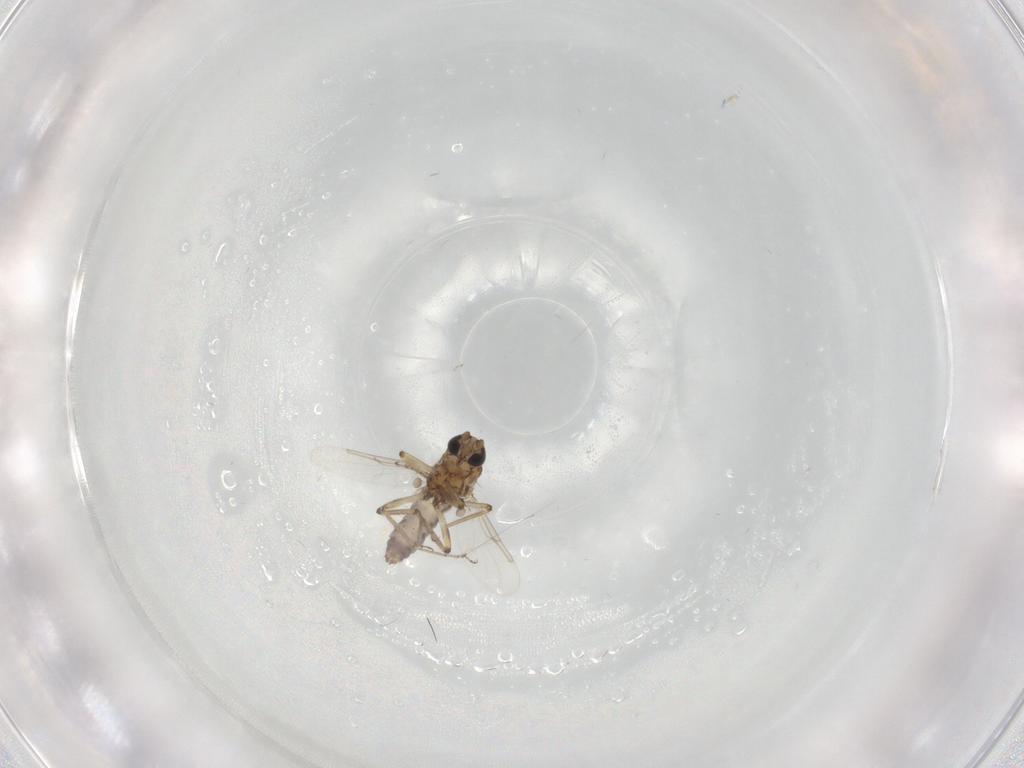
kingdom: Animalia
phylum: Arthropoda
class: Insecta
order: Diptera
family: Ceratopogonidae
